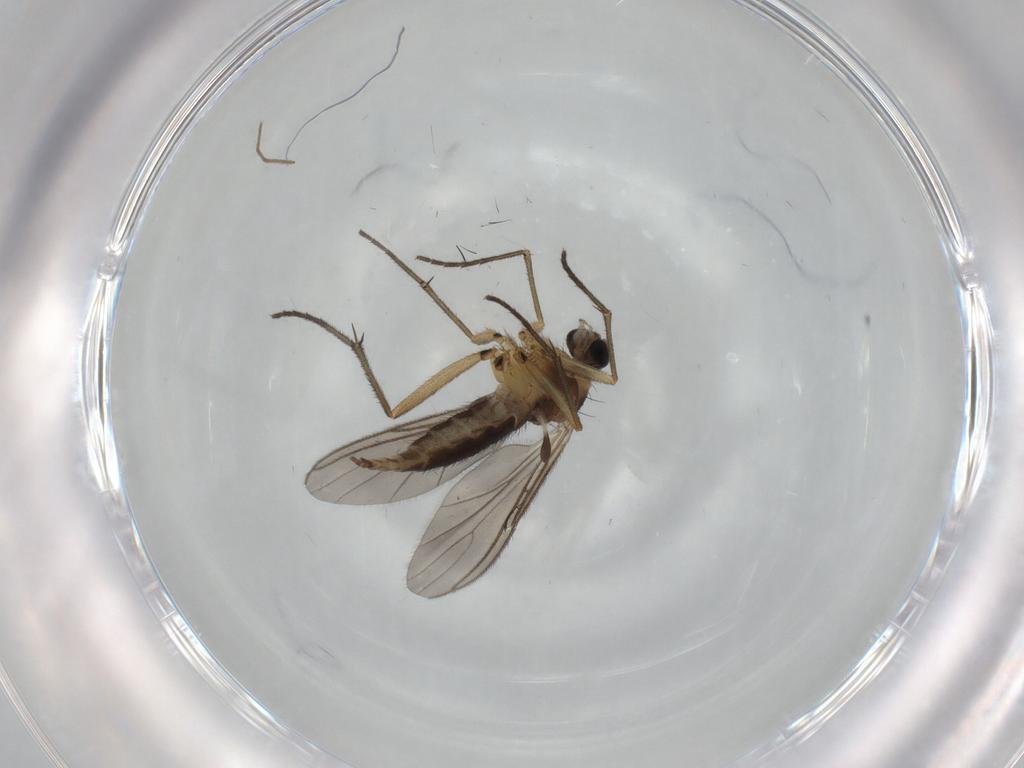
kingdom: Animalia
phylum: Arthropoda
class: Insecta
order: Diptera
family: Sciaridae
